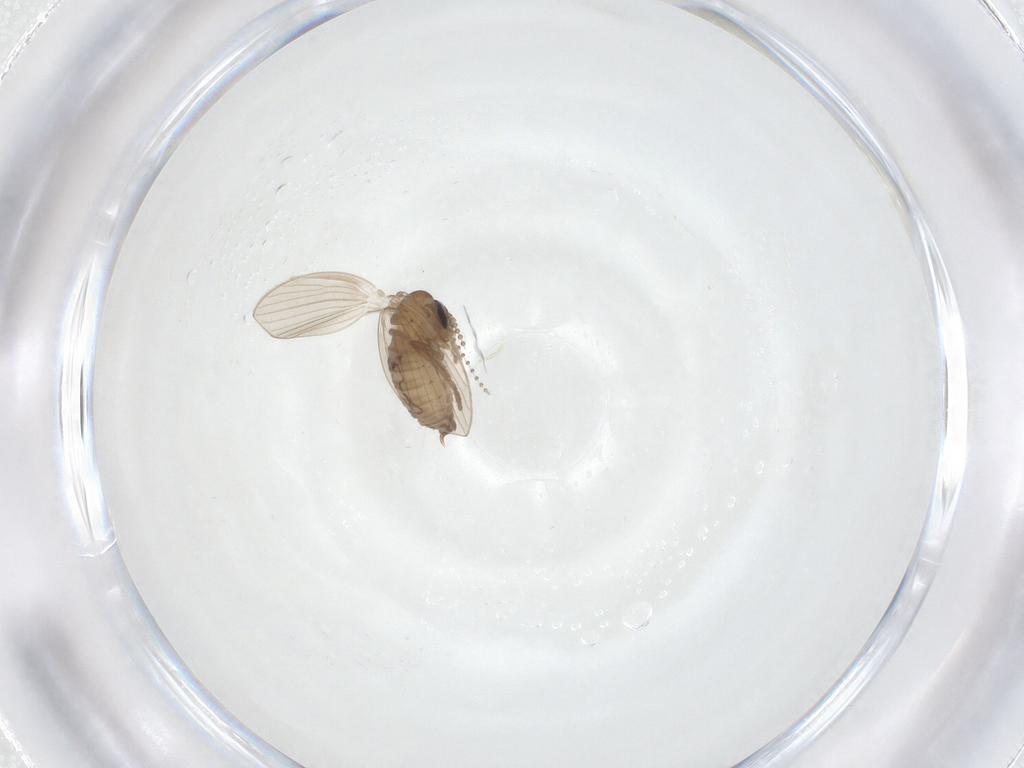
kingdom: Animalia
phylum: Arthropoda
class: Insecta
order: Diptera
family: Psychodidae
